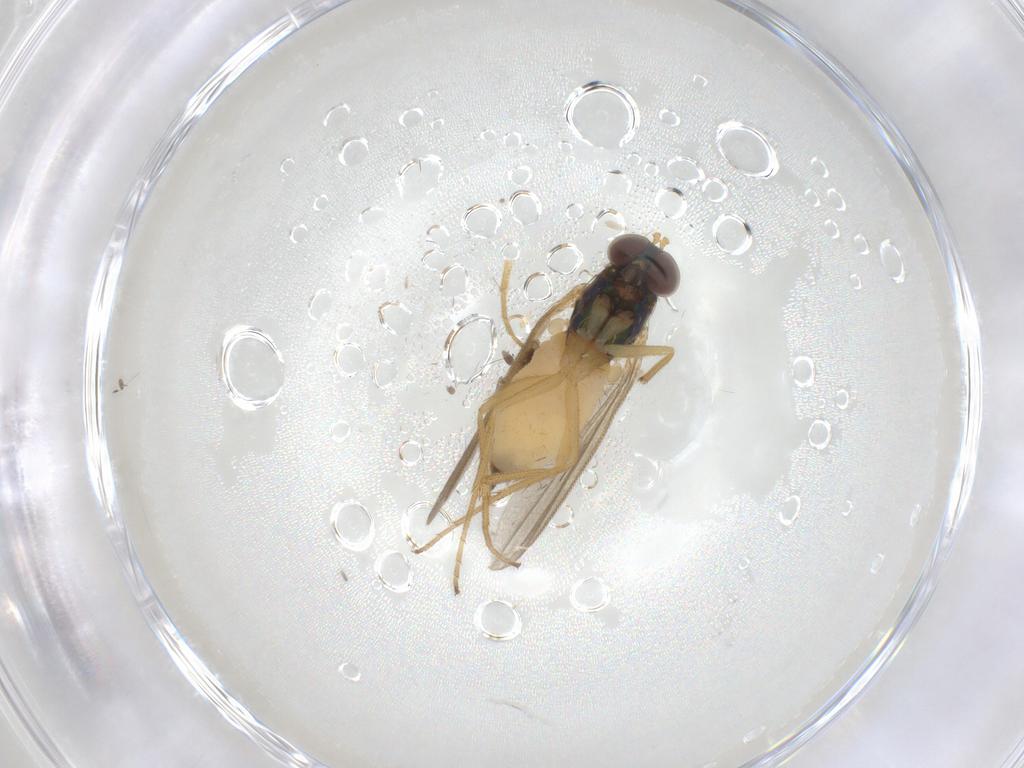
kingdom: Animalia
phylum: Arthropoda
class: Insecta
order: Diptera
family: Dolichopodidae
